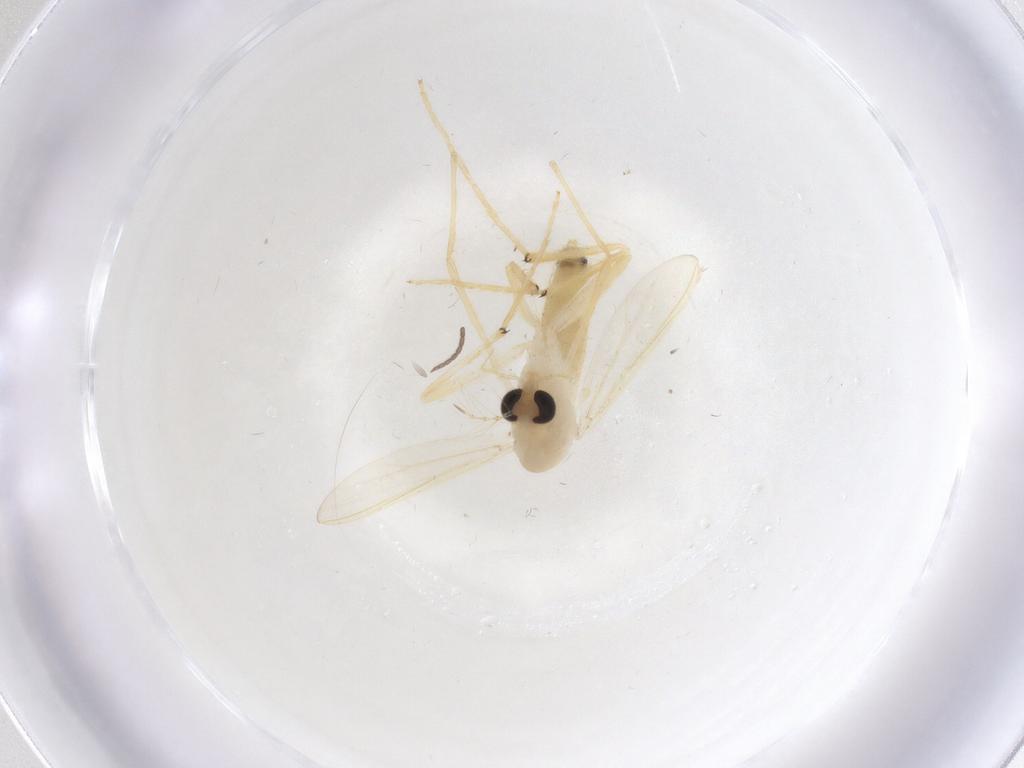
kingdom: Animalia
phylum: Arthropoda
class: Insecta
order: Diptera
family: Chironomidae
